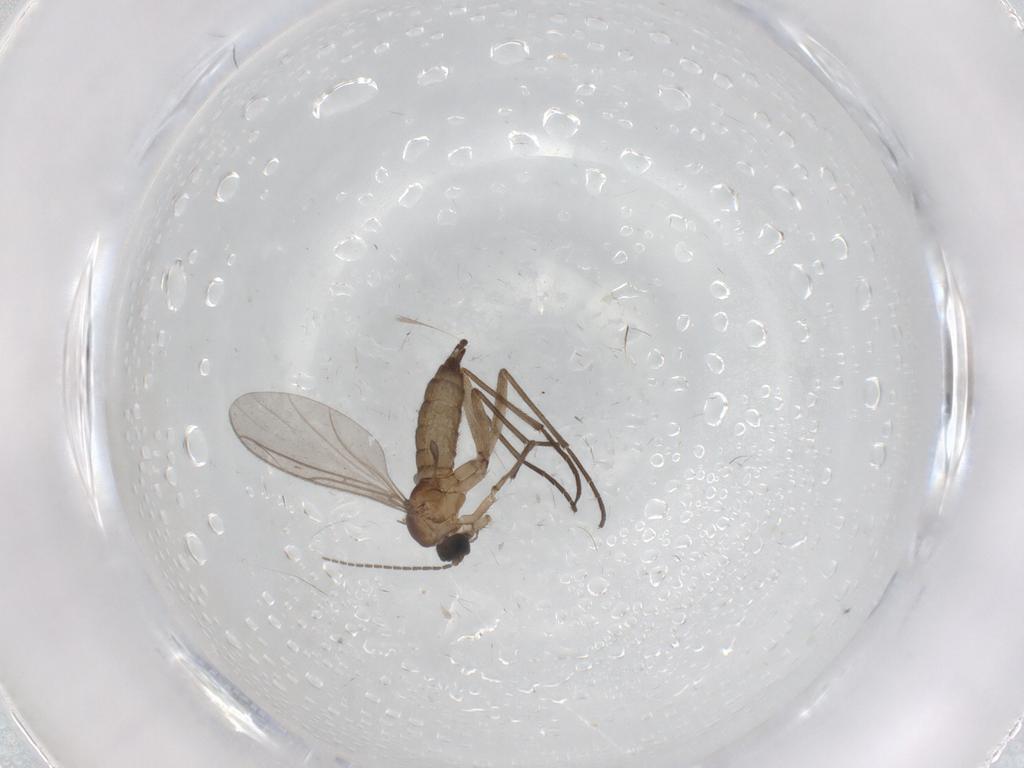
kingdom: Animalia
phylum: Arthropoda
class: Insecta
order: Diptera
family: Sciaridae
